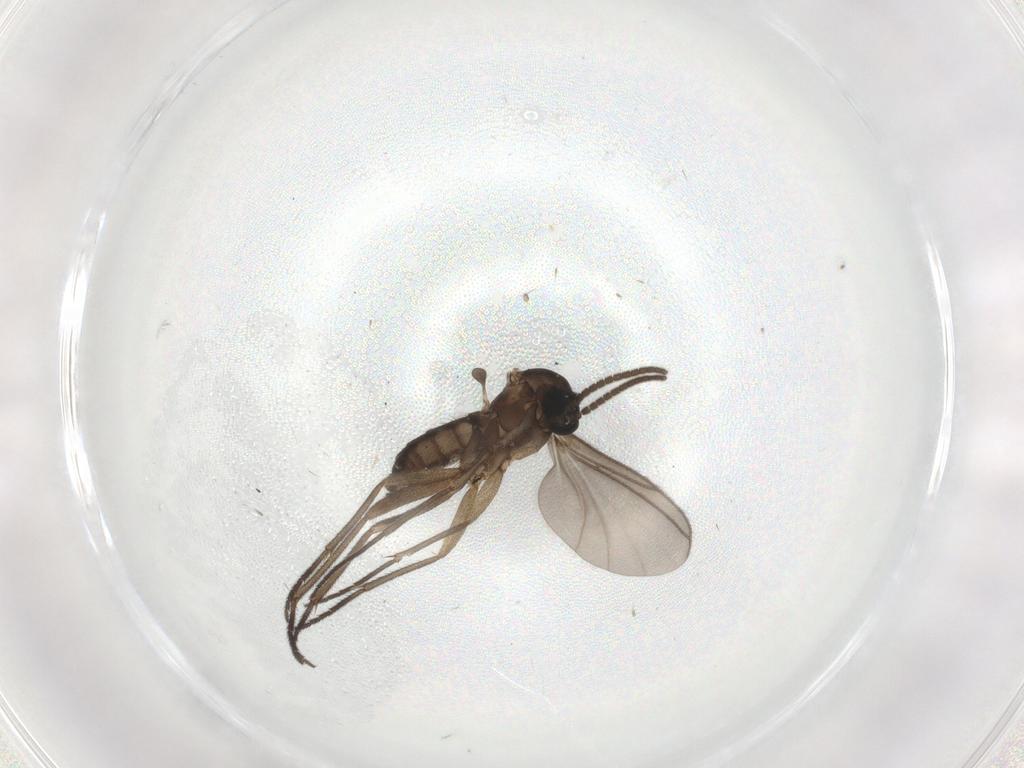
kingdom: Animalia
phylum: Arthropoda
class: Insecta
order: Diptera
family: Sciaridae
